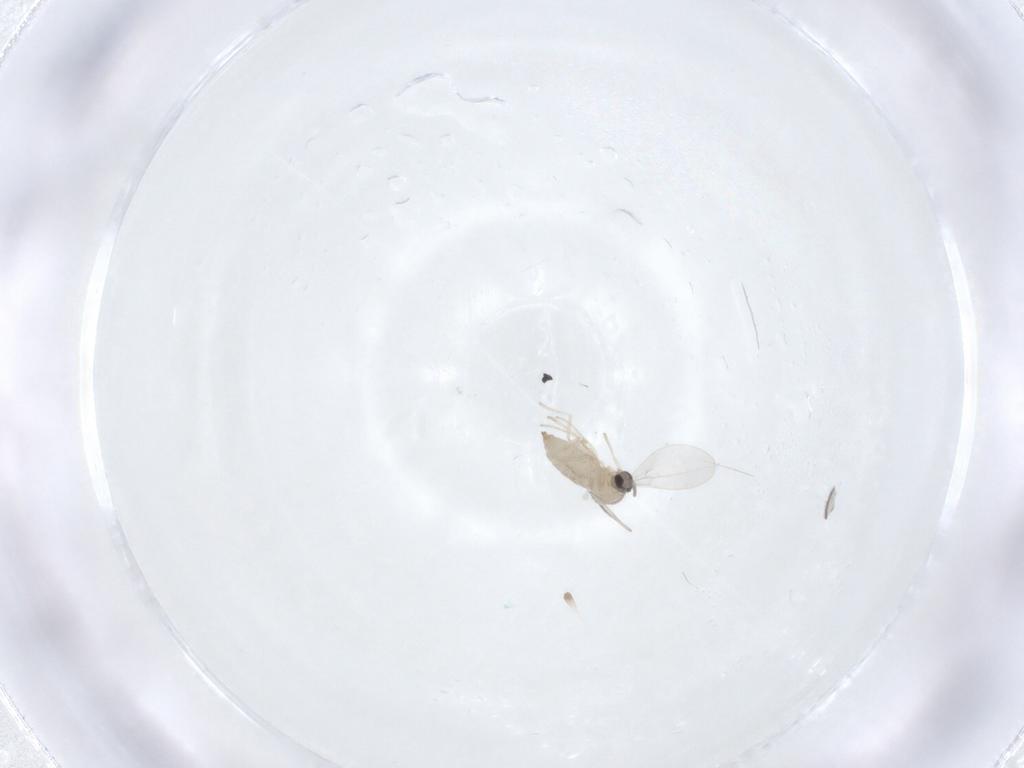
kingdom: Animalia
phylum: Arthropoda
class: Insecta
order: Diptera
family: Cecidomyiidae
